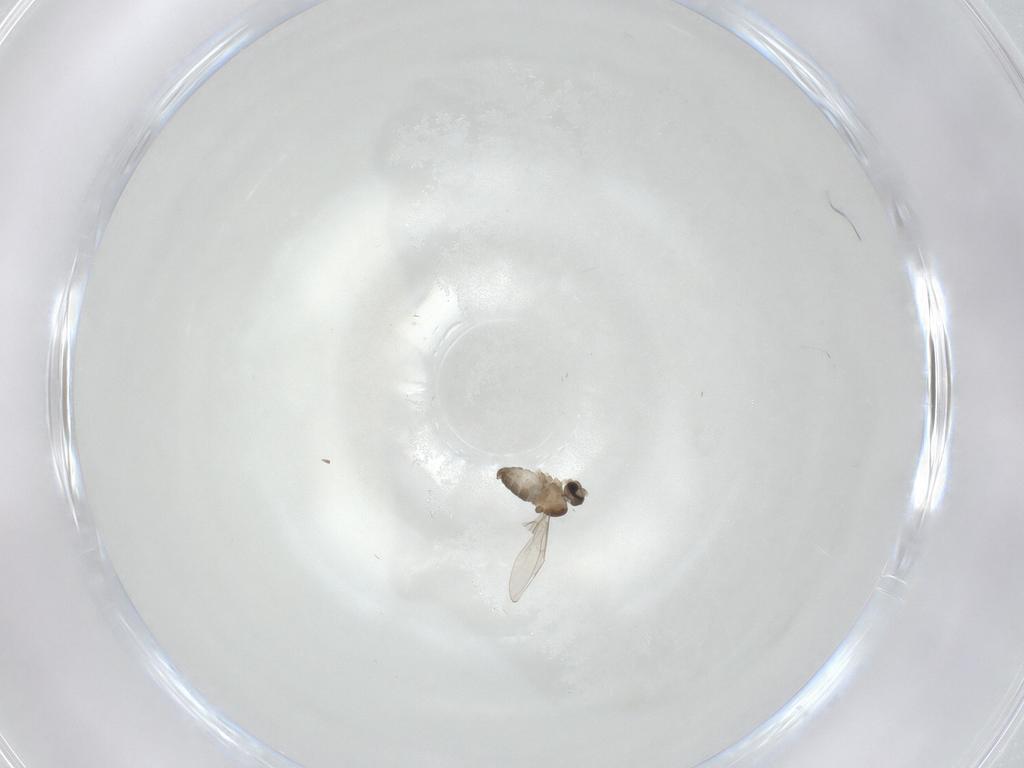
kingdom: Animalia
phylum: Arthropoda
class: Insecta
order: Diptera
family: Cecidomyiidae
